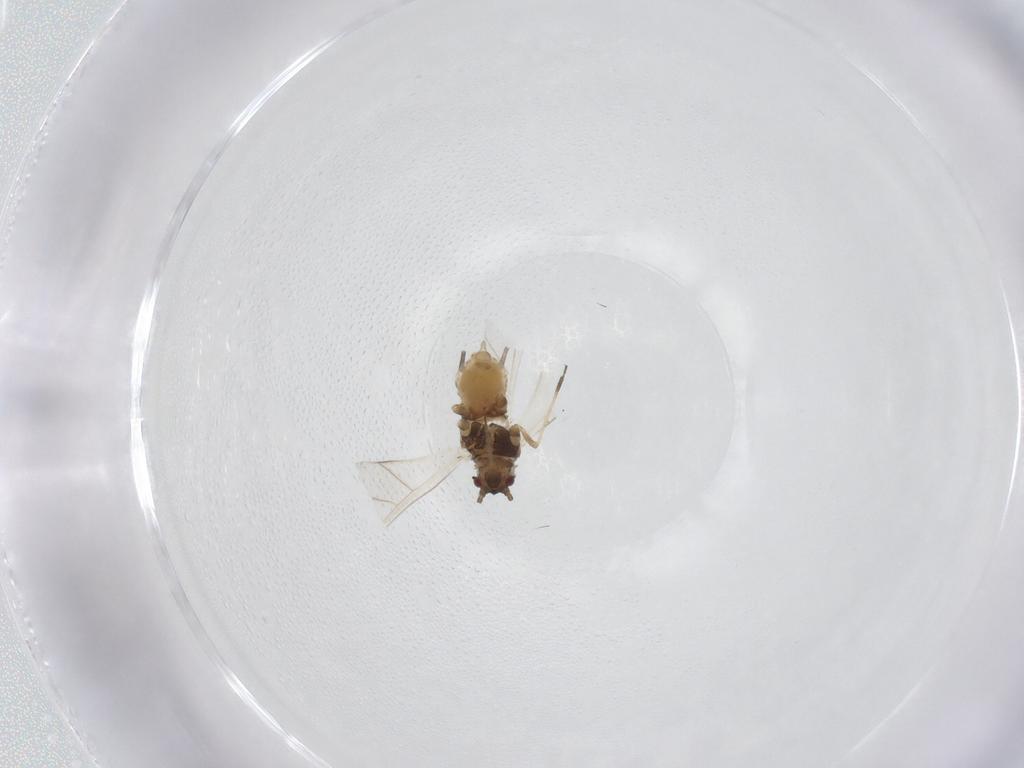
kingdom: Animalia
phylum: Arthropoda
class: Insecta
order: Hemiptera
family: Aphididae
